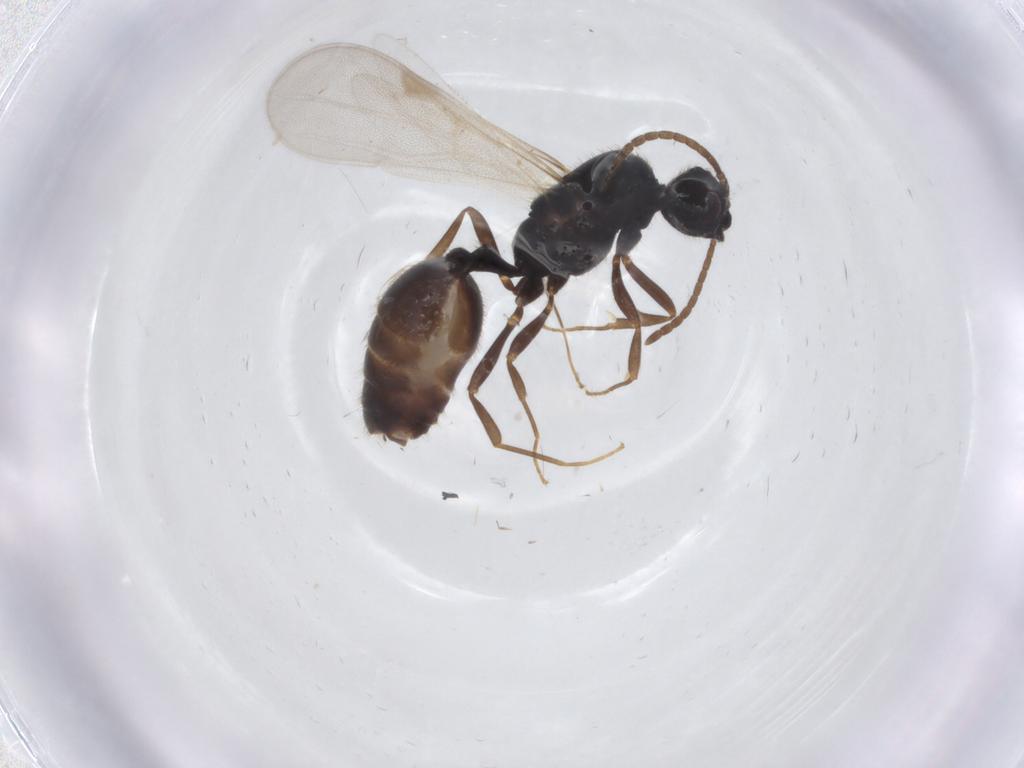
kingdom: Animalia
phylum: Arthropoda
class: Insecta
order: Hymenoptera
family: Formicidae
